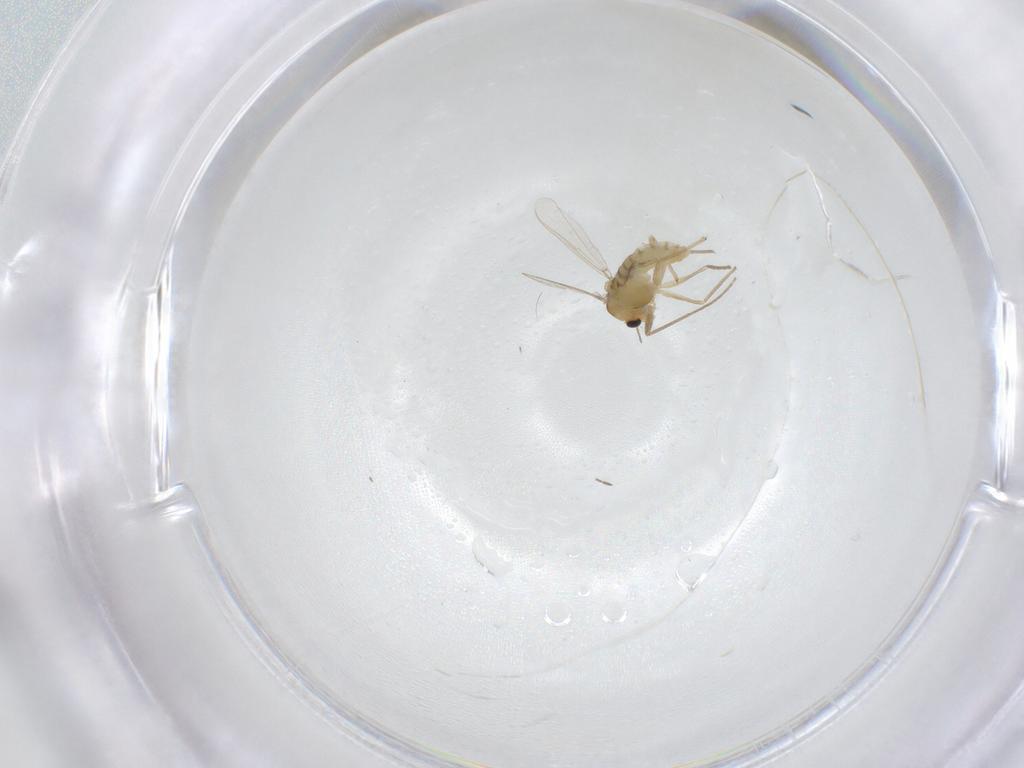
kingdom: Animalia
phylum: Arthropoda
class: Insecta
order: Diptera
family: Chironomidae
